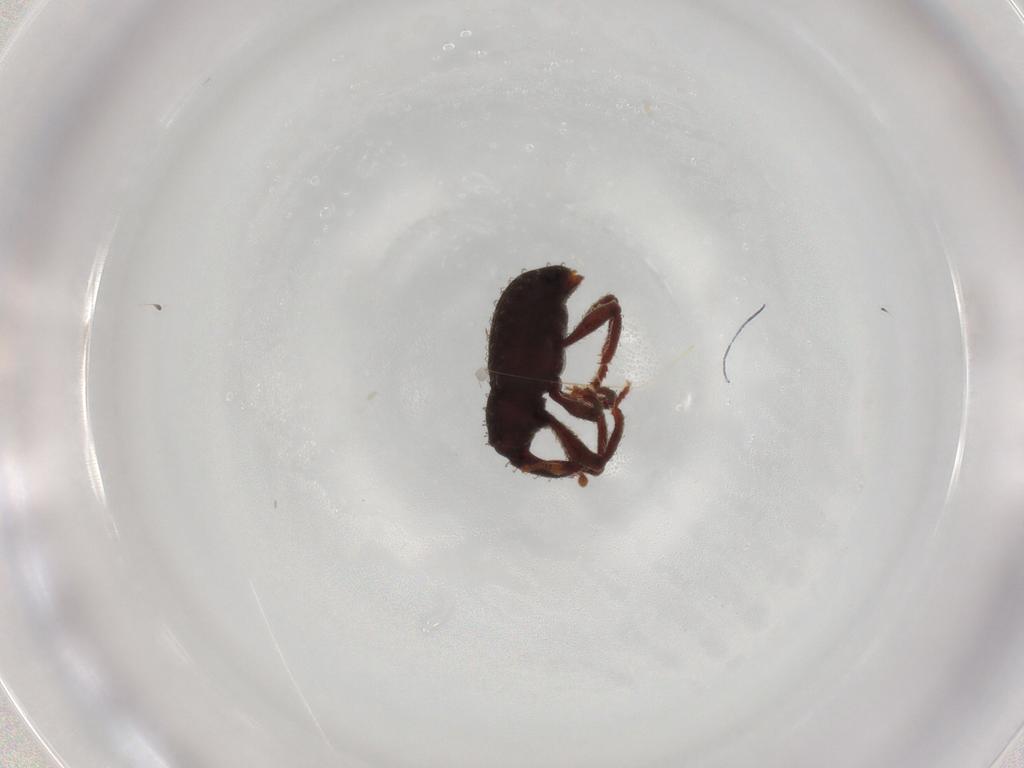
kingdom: Animalia
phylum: Arthropoda
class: Insecta
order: Coleoptera
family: Curculionidae
